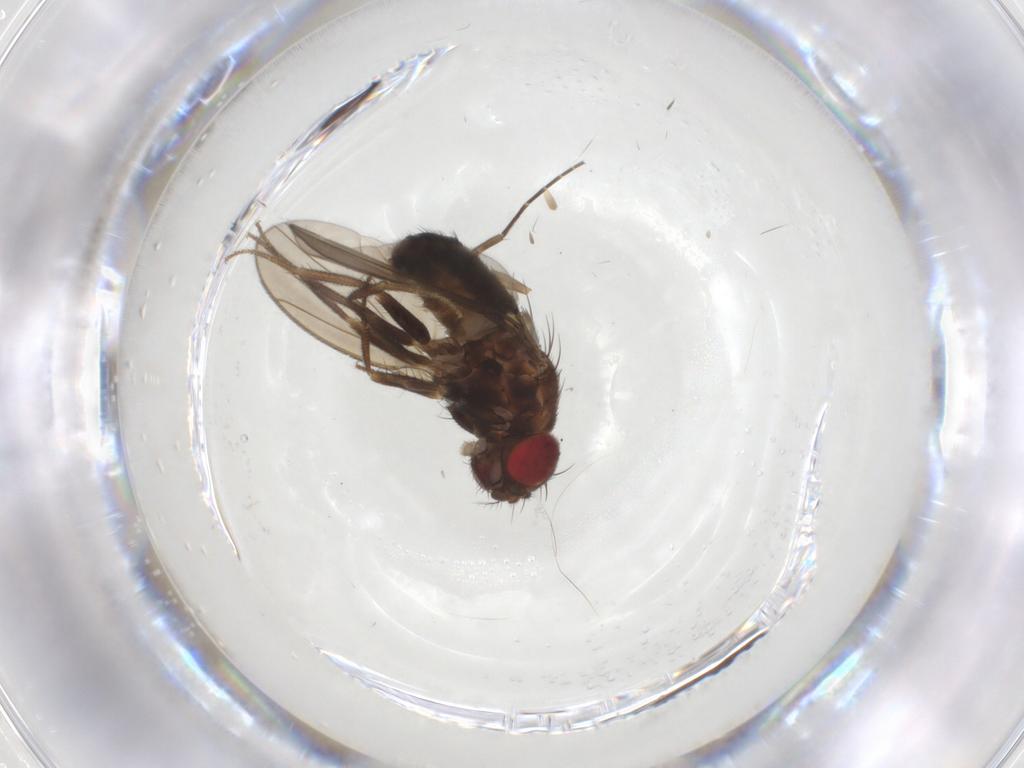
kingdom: Animalia
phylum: Arthropoda
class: Insecta
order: Diptera
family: Drosophilidae
